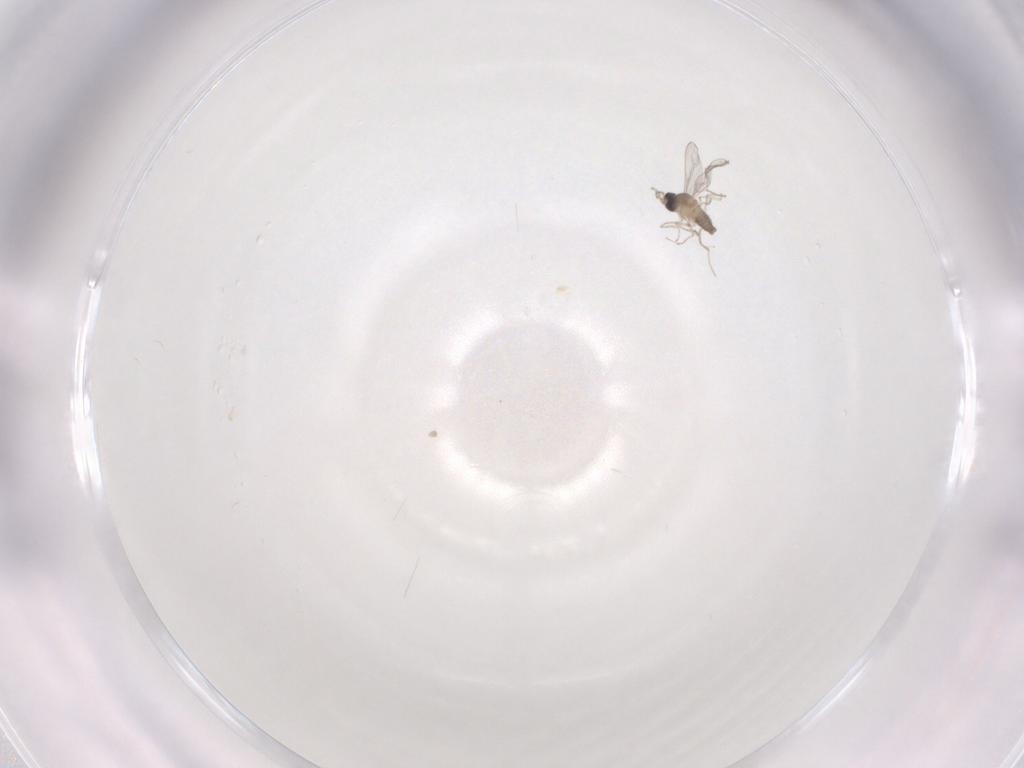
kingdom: Animalia
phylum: Arthropoda
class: Insecta
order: Diptera
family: Cecidomyiidae
